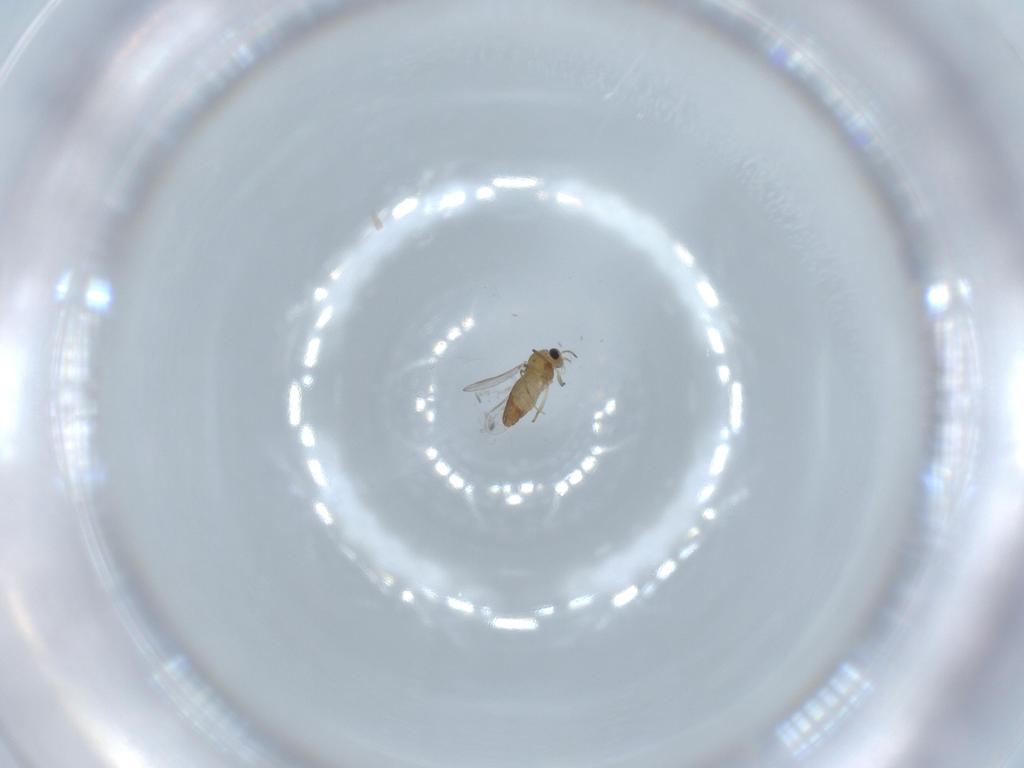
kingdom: Animalia
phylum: Arthropoda
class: Insecta
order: Diptera
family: Chironomidae
